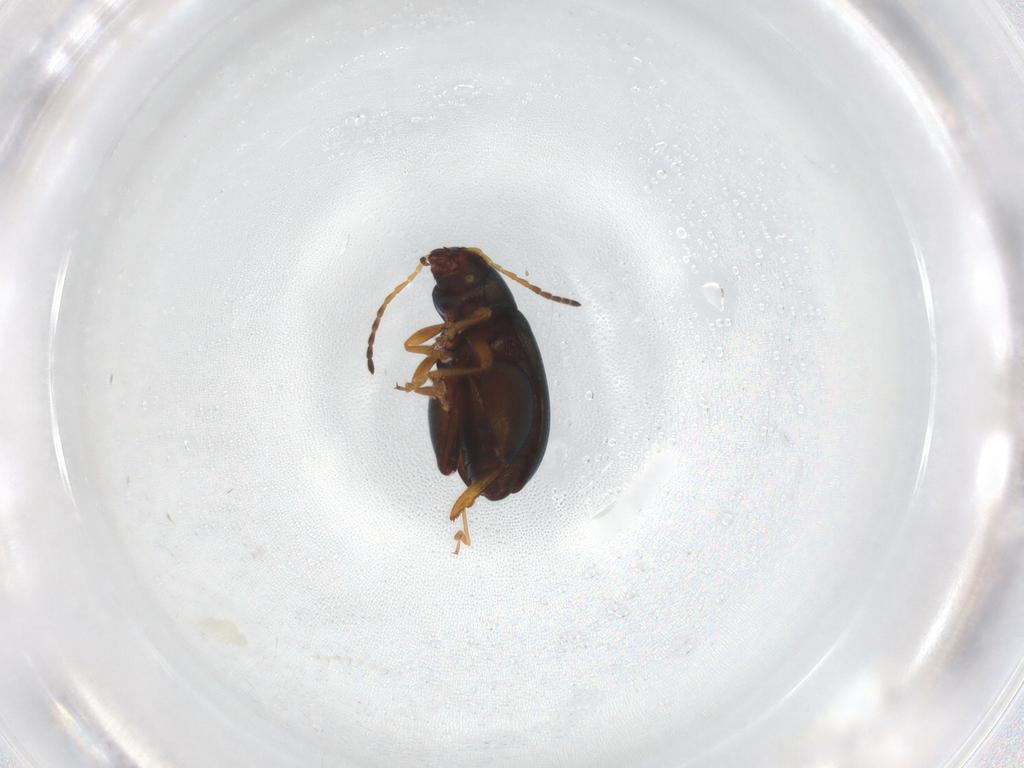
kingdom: Animalia
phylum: Arthropoda
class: Insecta
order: Coleoptera
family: Chrysomelidae
